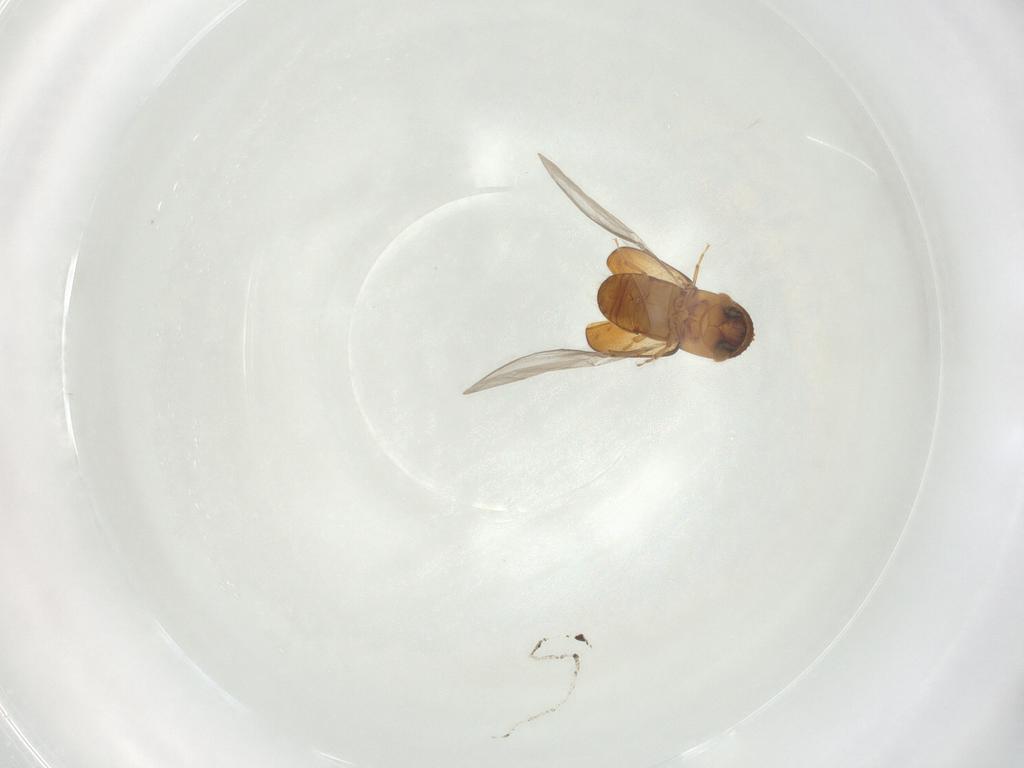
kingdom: Animalia
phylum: Arthropoda
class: Insecta
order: Coleoptera
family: Curculionidae
